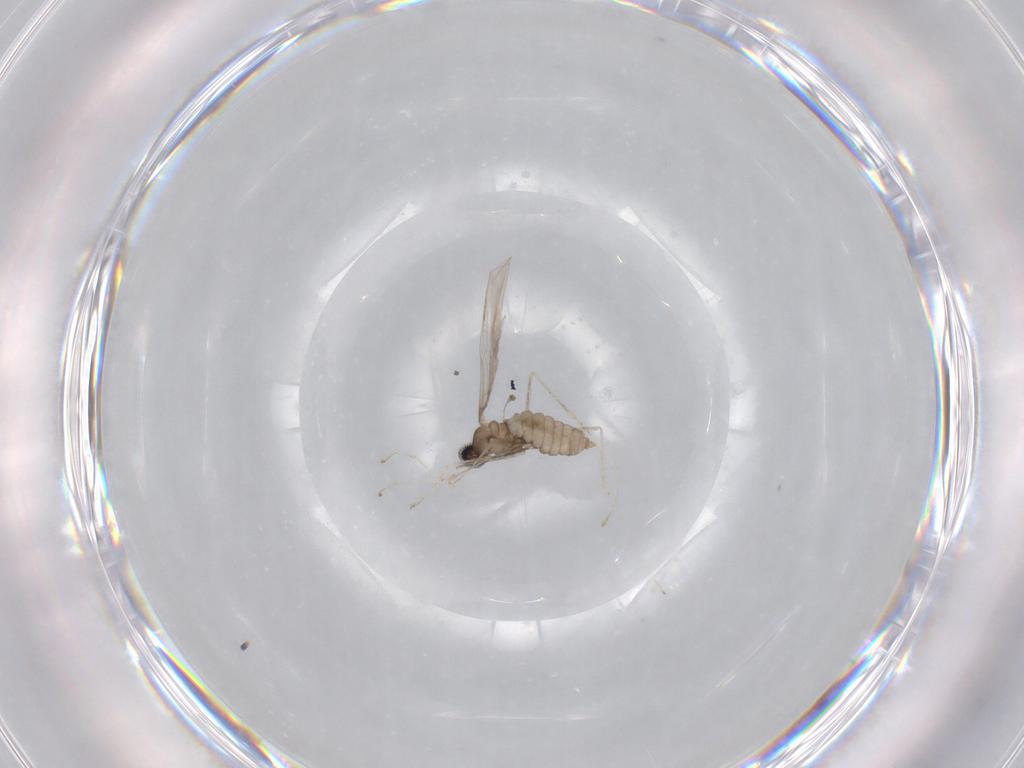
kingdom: Animalia
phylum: Arthropoda
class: Insecta
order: Diptera
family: Cecidomyiidae
